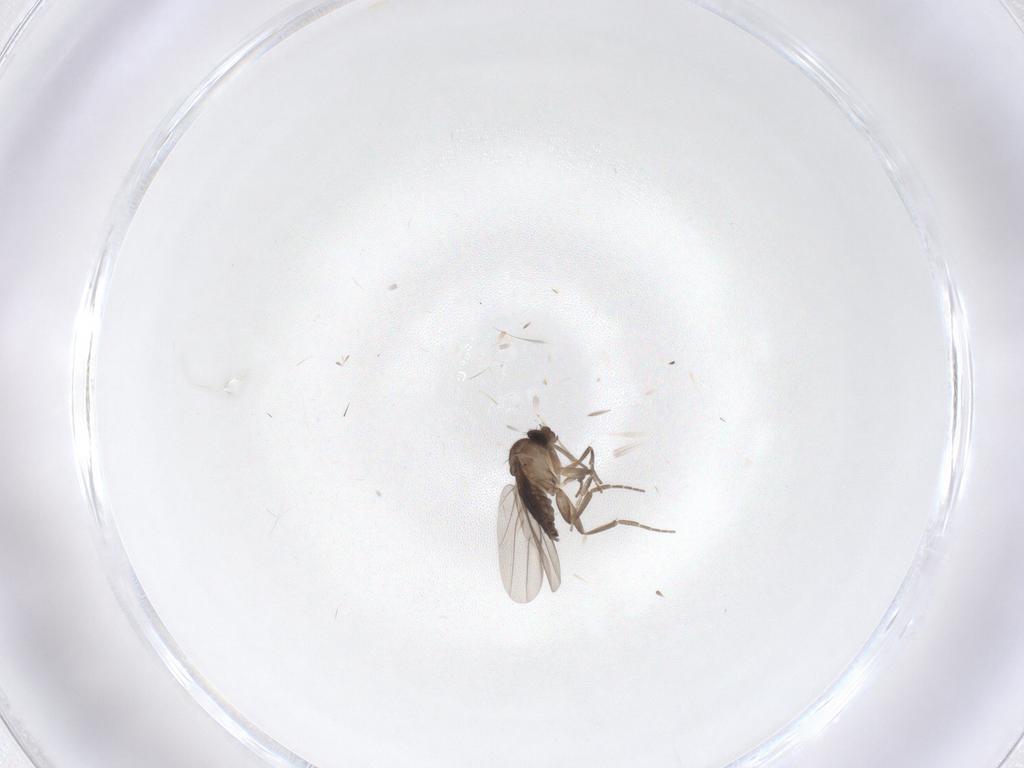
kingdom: Animalia
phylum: Arthropoda
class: Insecta
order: Diptera
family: Phoridae
